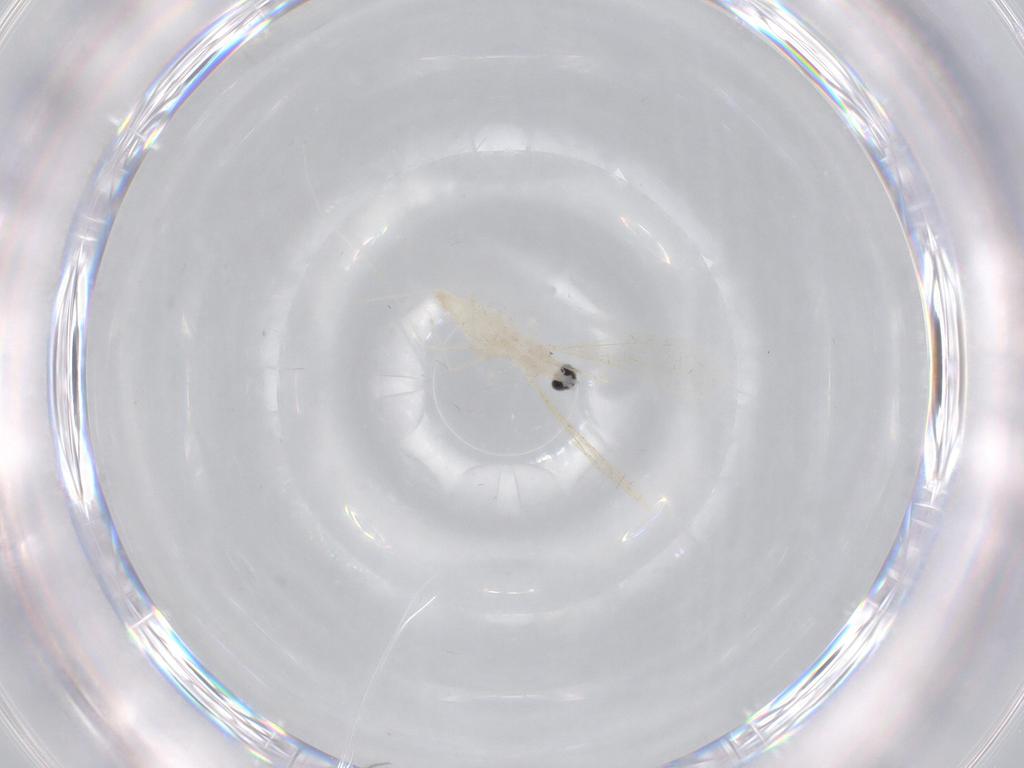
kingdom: Animalia
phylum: Arthropoda
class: Insecta
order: Diptera
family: Cecidomyiidae
